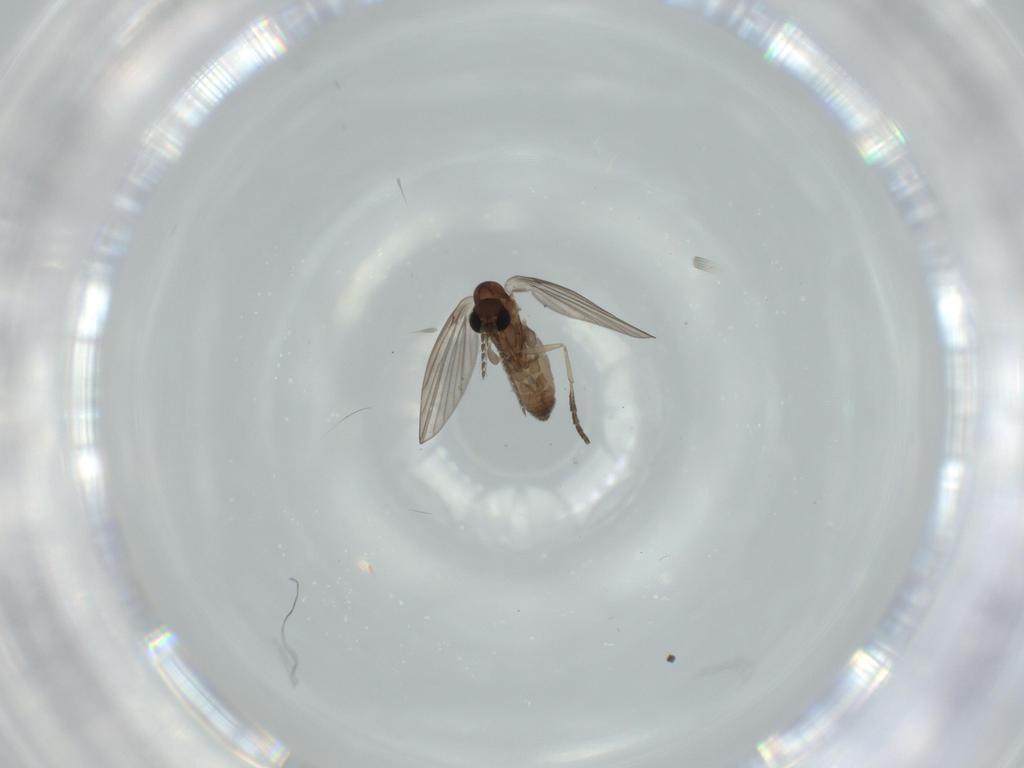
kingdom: Animalia
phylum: Arthropoda
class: Insecta
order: Diptera
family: Psychodidae
